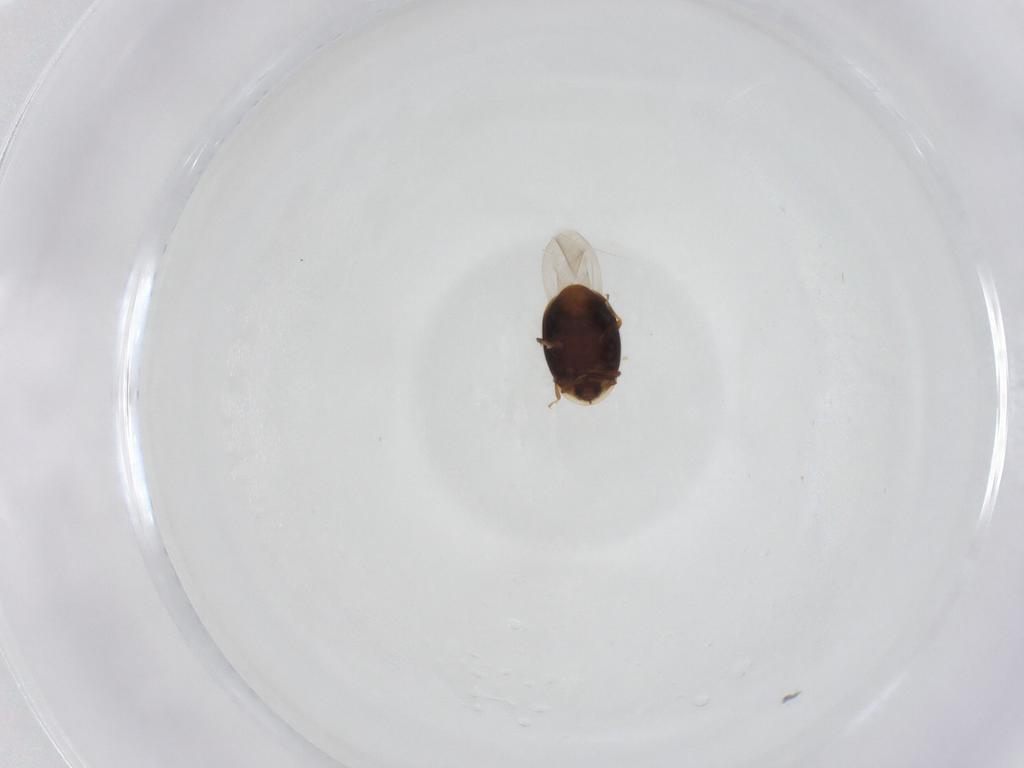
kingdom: Animalia
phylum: Arthropoda
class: Insecta
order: Coleoptera
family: Corylophidae
